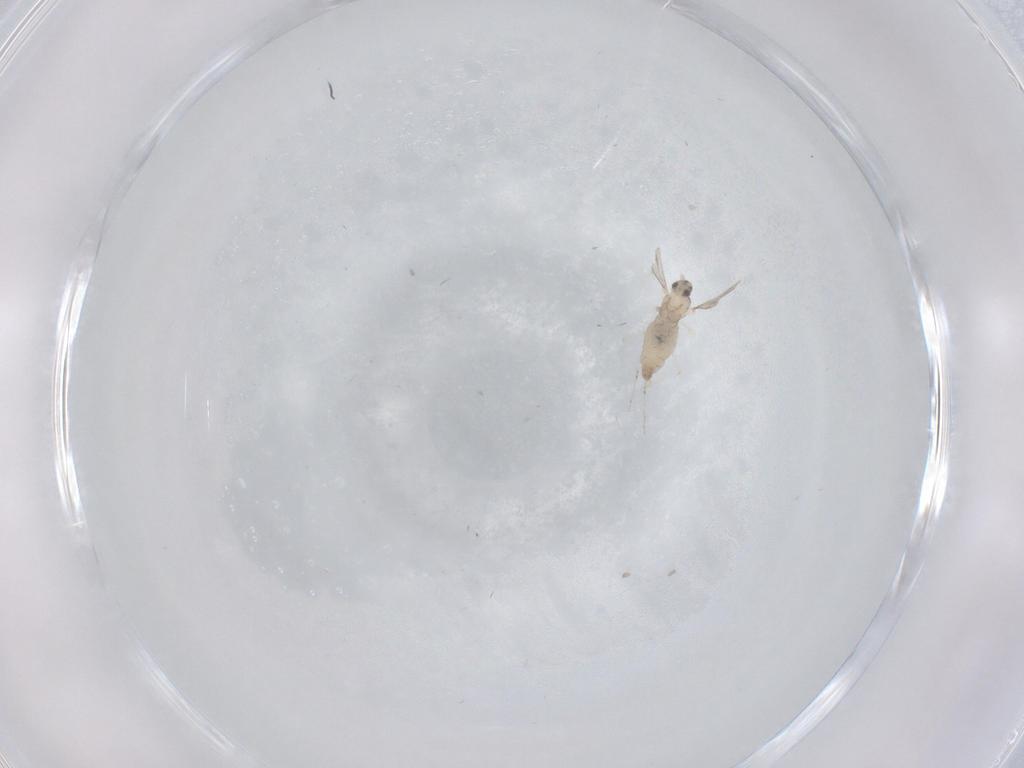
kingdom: Animalia
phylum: Arthropoda
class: Insecta
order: Diptera
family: Cecidomyiidae
